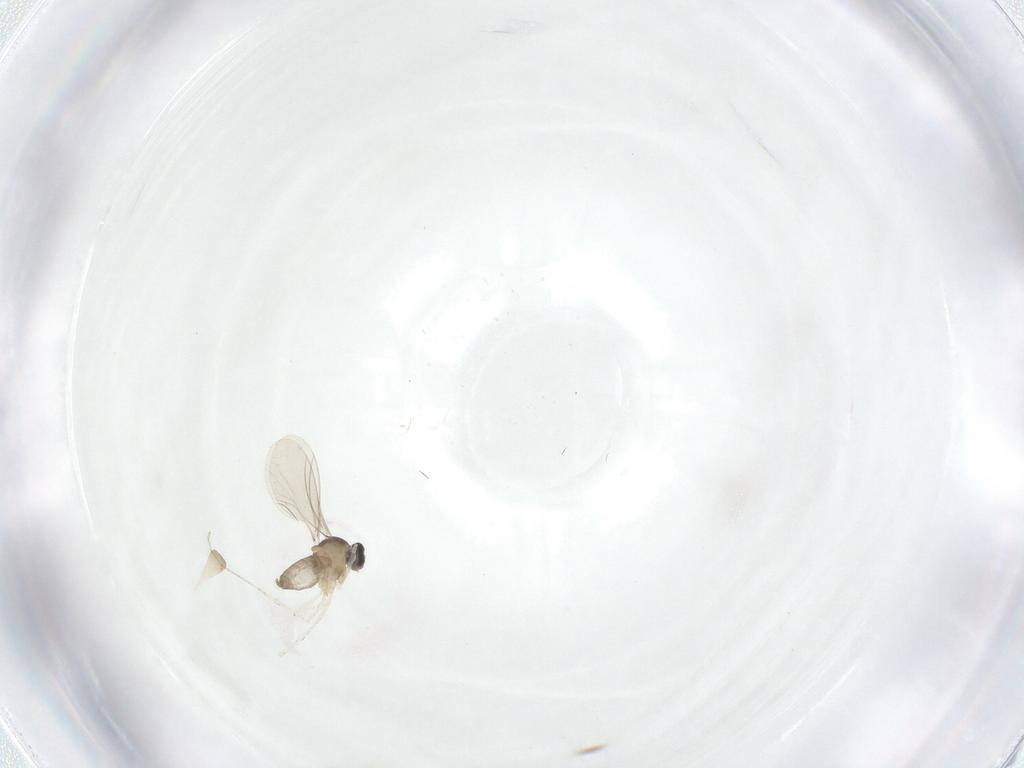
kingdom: Animalia
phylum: Arthropoda
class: Insecta
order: Diptera
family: Cecidomyiidae
